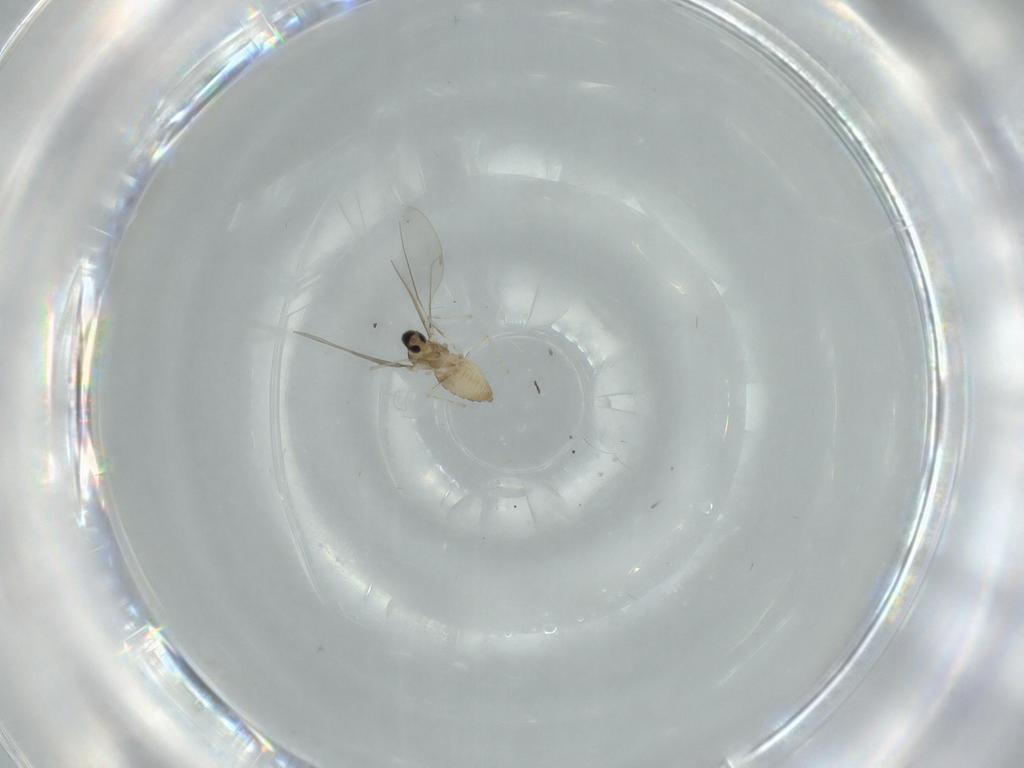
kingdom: Animalia
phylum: Arthropoda
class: Insecta
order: Diptera
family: Cecidomyiidae
